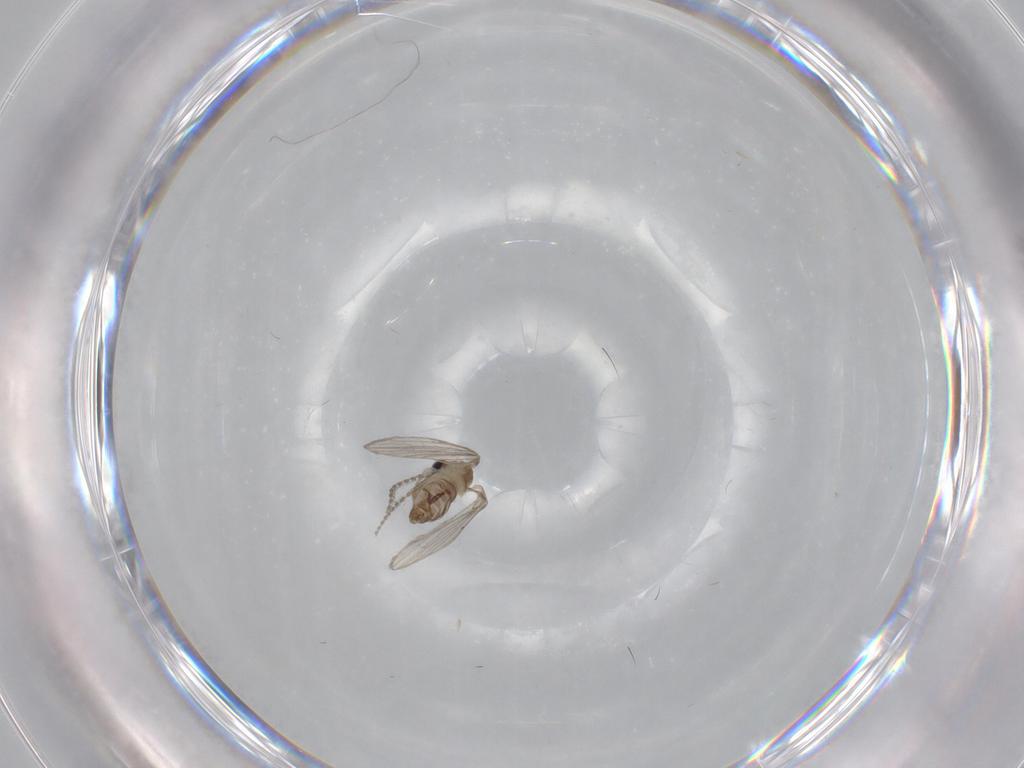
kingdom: Animalia
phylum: Arthropoda
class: Insecta
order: Diptera
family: Psychodidae
